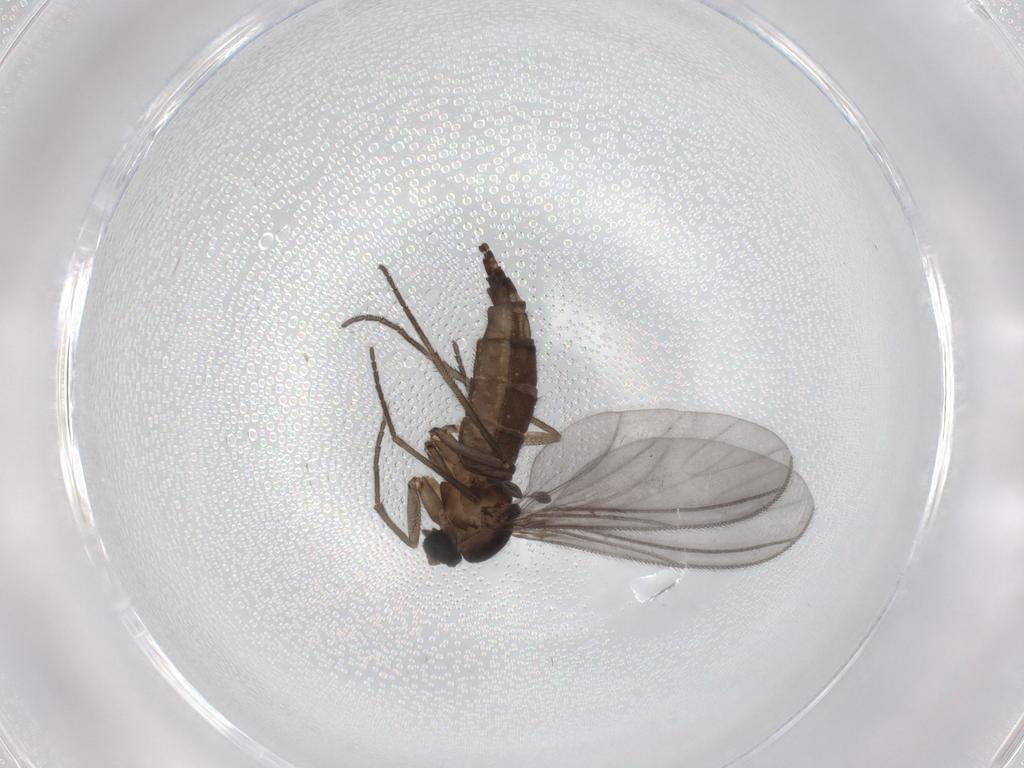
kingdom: Animalia
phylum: Arthropoda
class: Insecta
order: Diptera
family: Sciaridae
